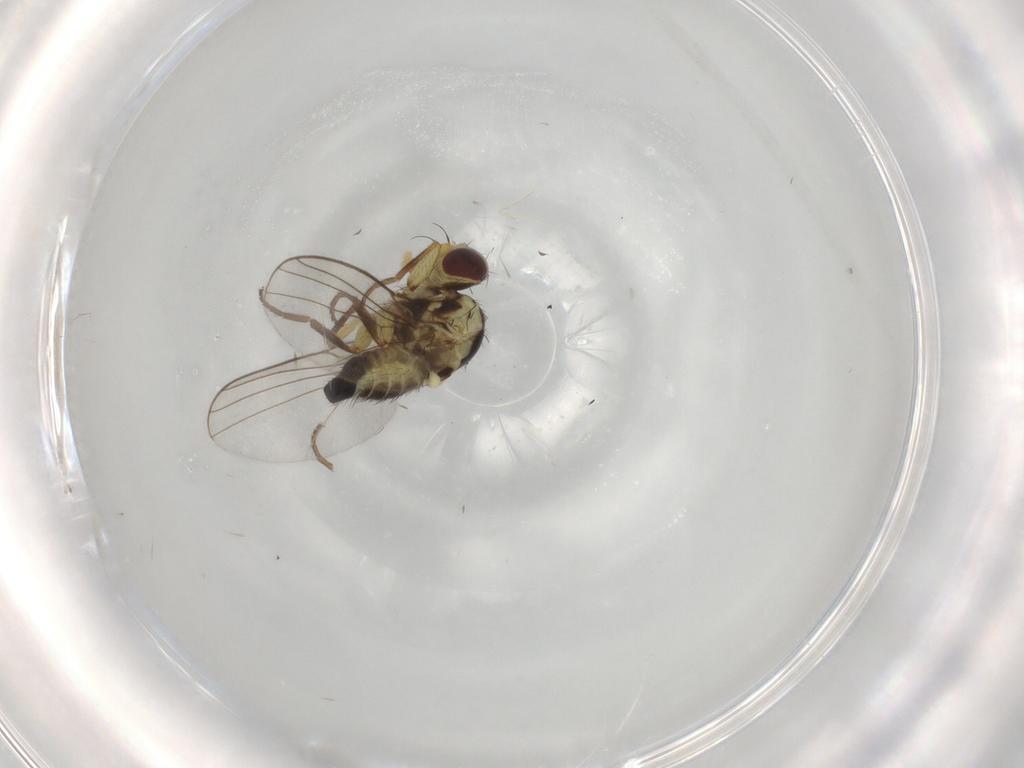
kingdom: Animalia
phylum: Arthropoda
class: Insecta
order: Diptera
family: Agromyzidae
